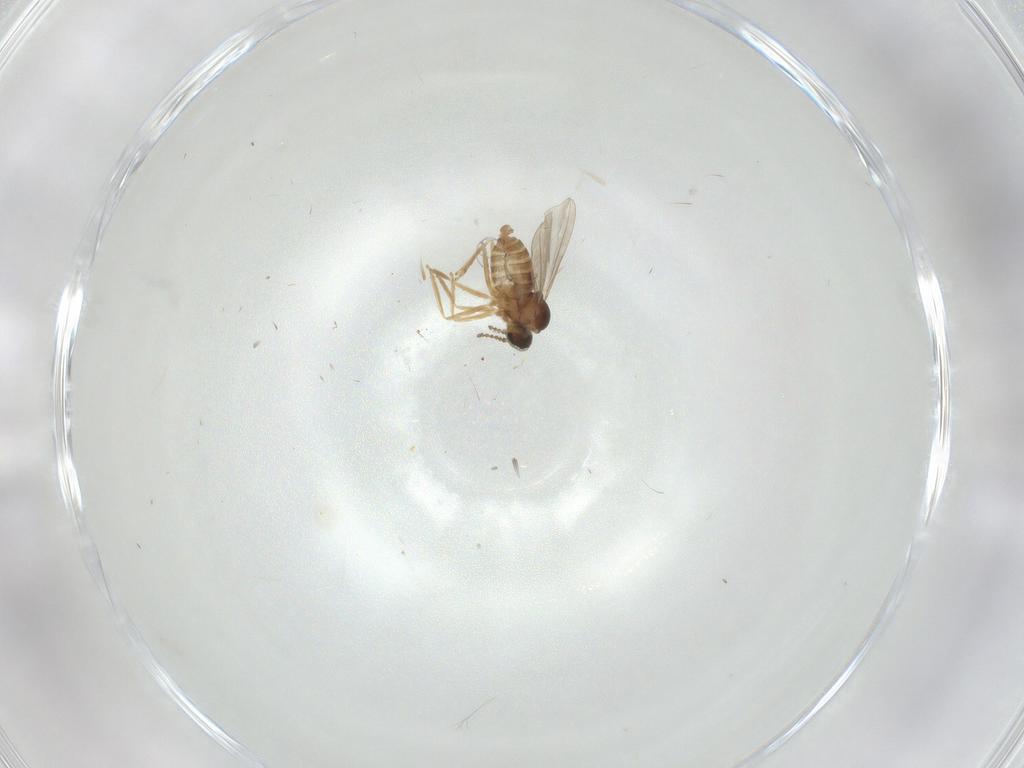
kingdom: Animalia
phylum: Arthropoda
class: Insecta
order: Diptera
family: Cecidomyiidae
